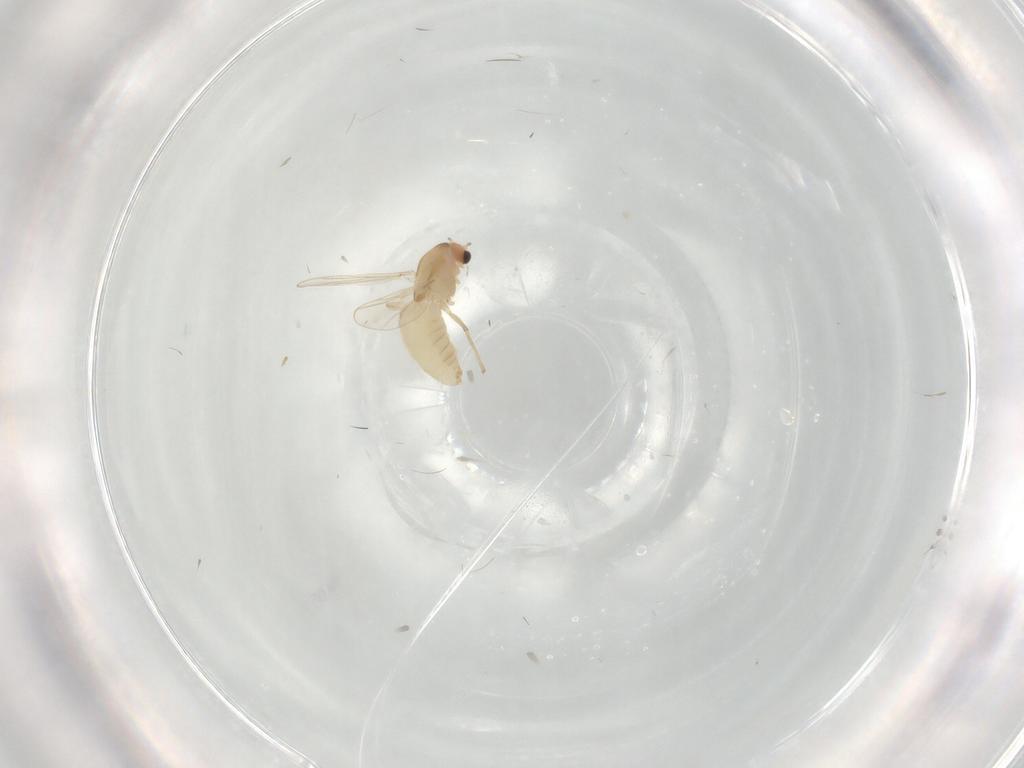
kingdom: Animalia
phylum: Arthropoda
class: Insecta
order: Diptera
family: Chironomidae
